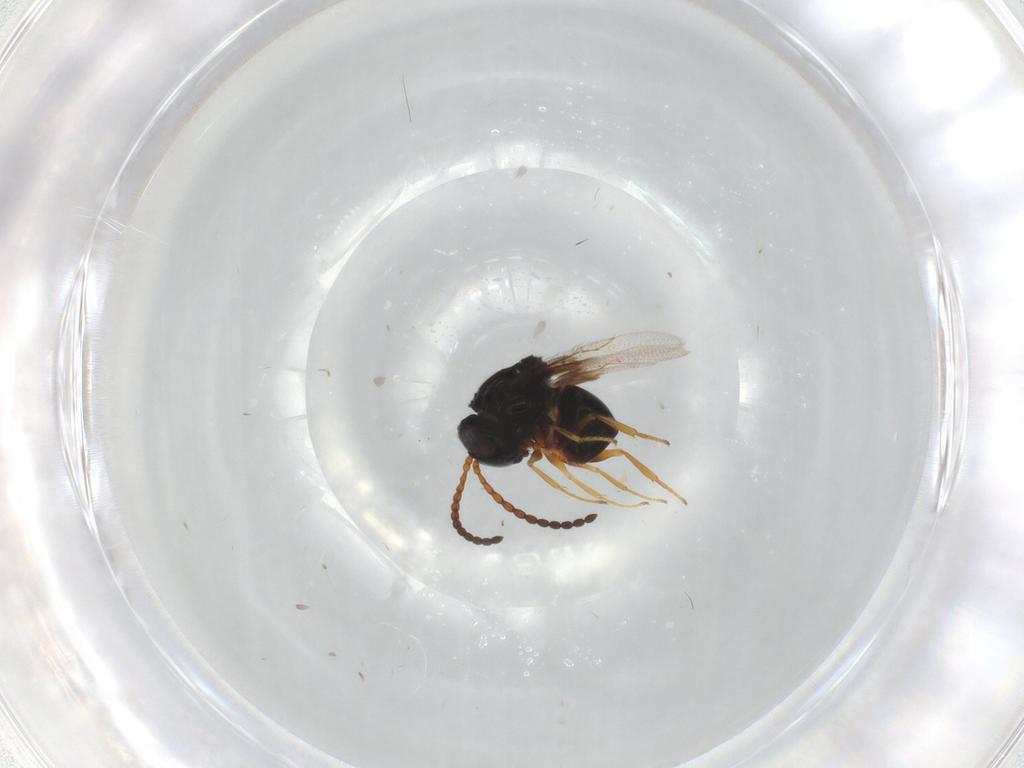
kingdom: Animalia
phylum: Arthropoda
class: Insecta
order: Hymenoptera
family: Figitidae
